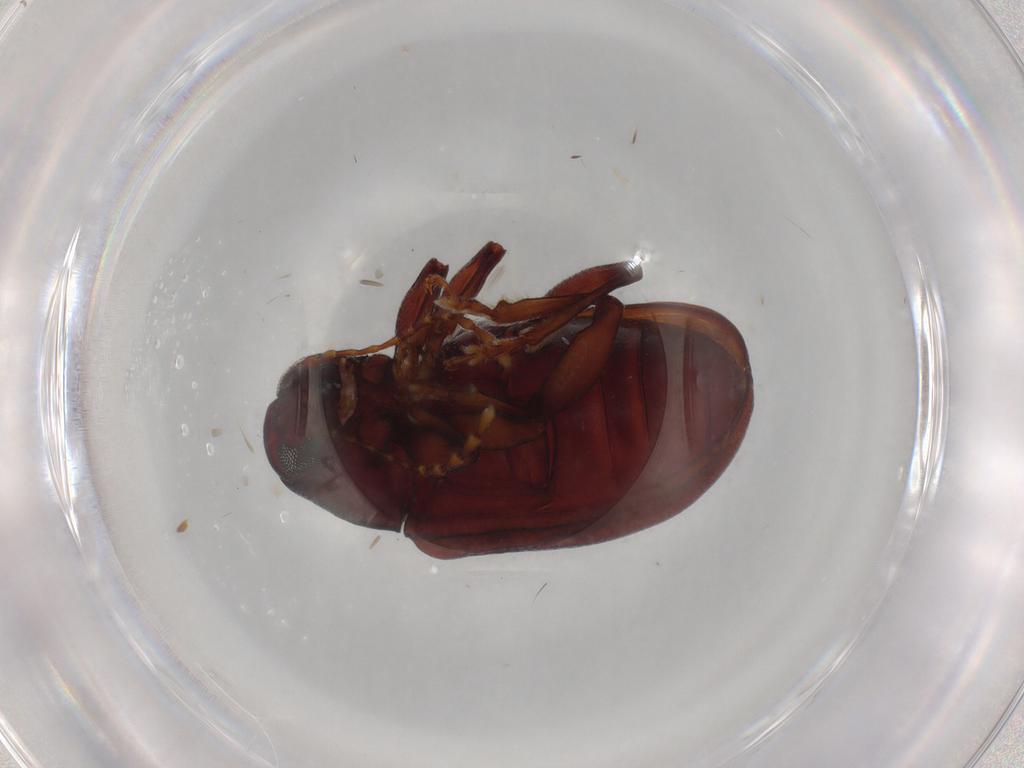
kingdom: Animalia
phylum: Arthropoda
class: Insecta
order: Coleoptera
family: Chrysomelidae
